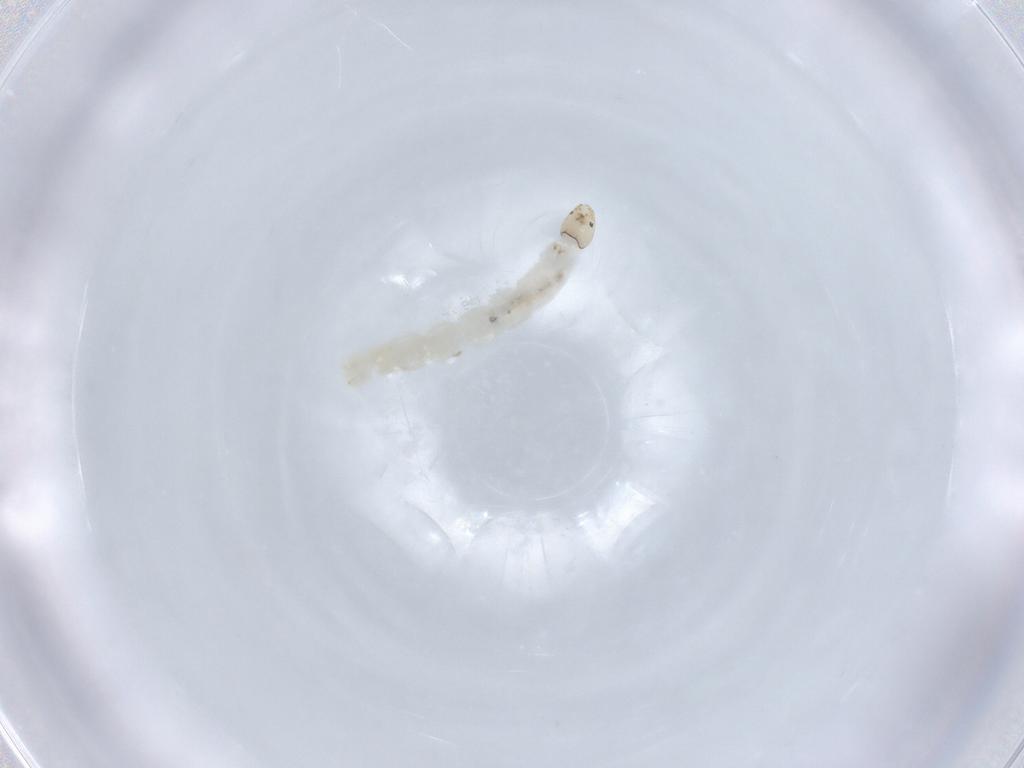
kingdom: Animalia
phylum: Arthropoda
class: Insecta
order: Diptera
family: Chironomidae
